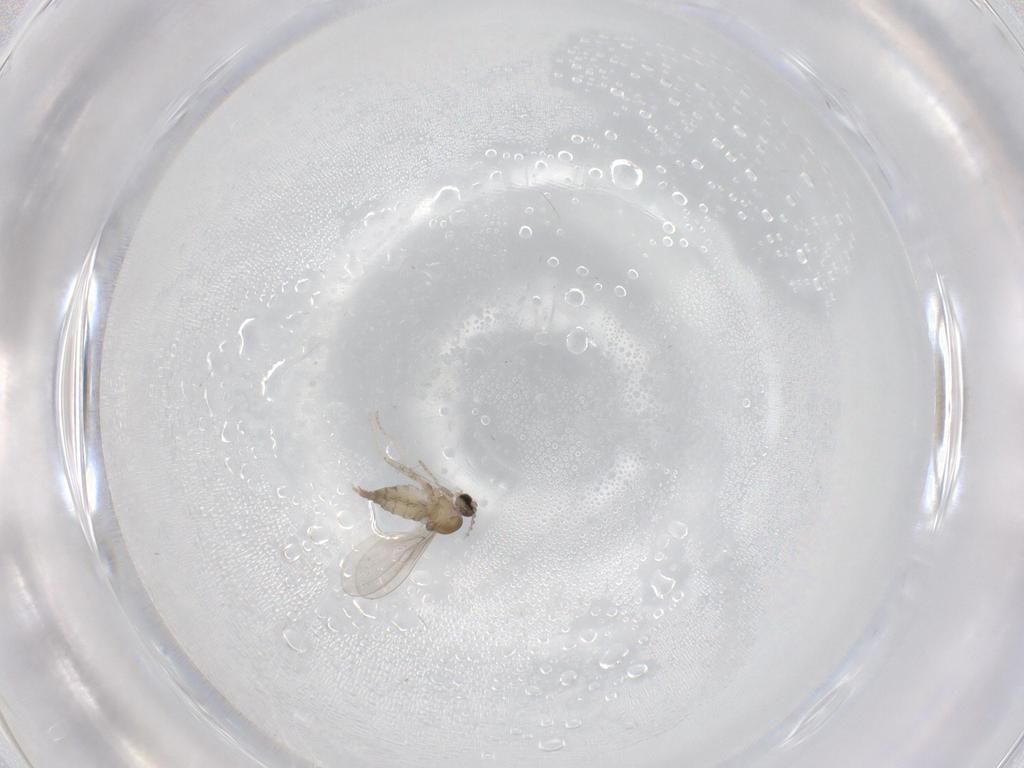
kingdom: Animalia
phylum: Arthropoda
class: Insecta
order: Diptera
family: Cecidomyiidae
